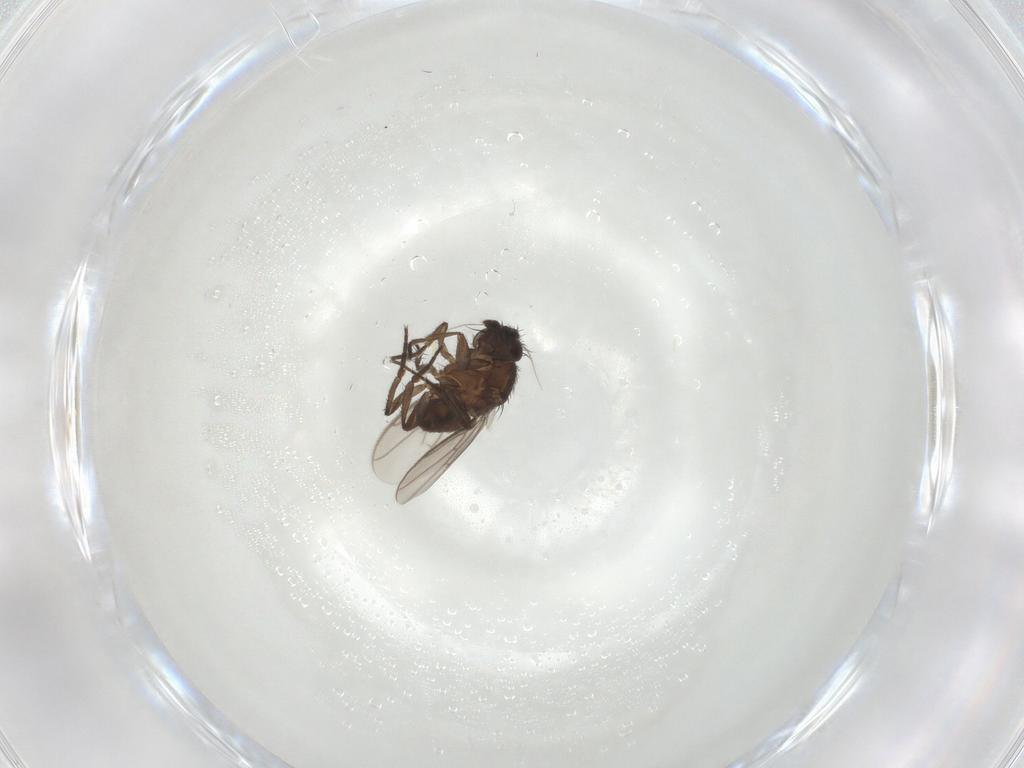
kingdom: Animalia
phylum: Arthropoda
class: Insecta
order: Diptera
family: Sphaeroceridae
